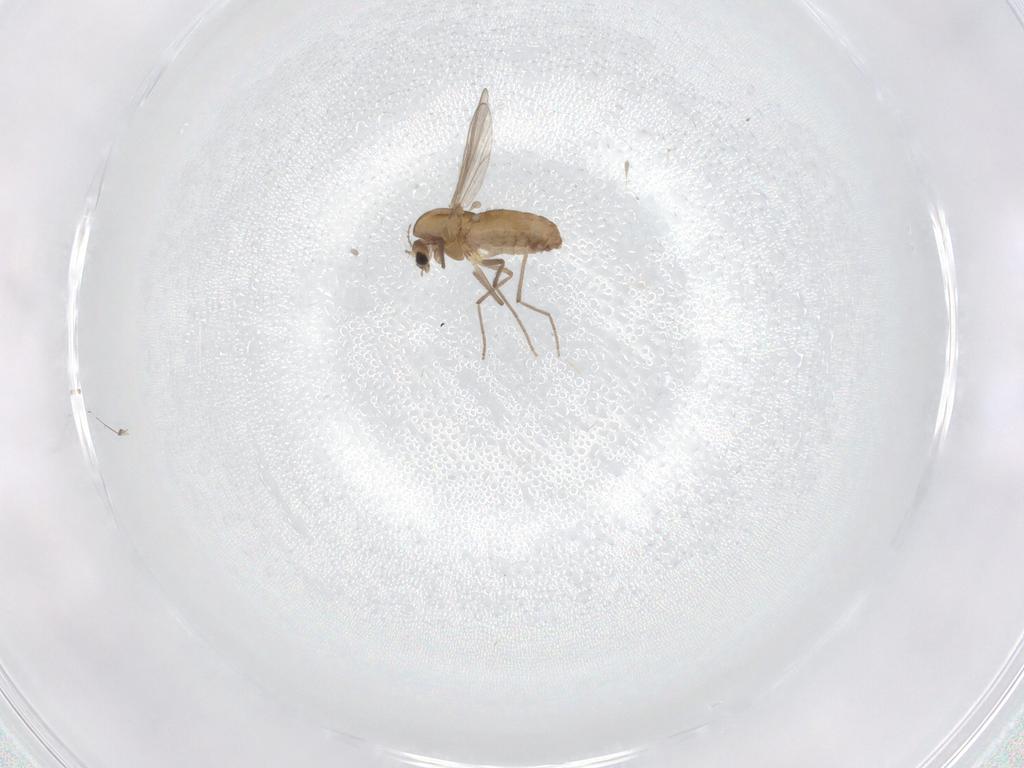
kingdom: Animalia
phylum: Arthropoda
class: Insecta
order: Diptera
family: Chironomidae
